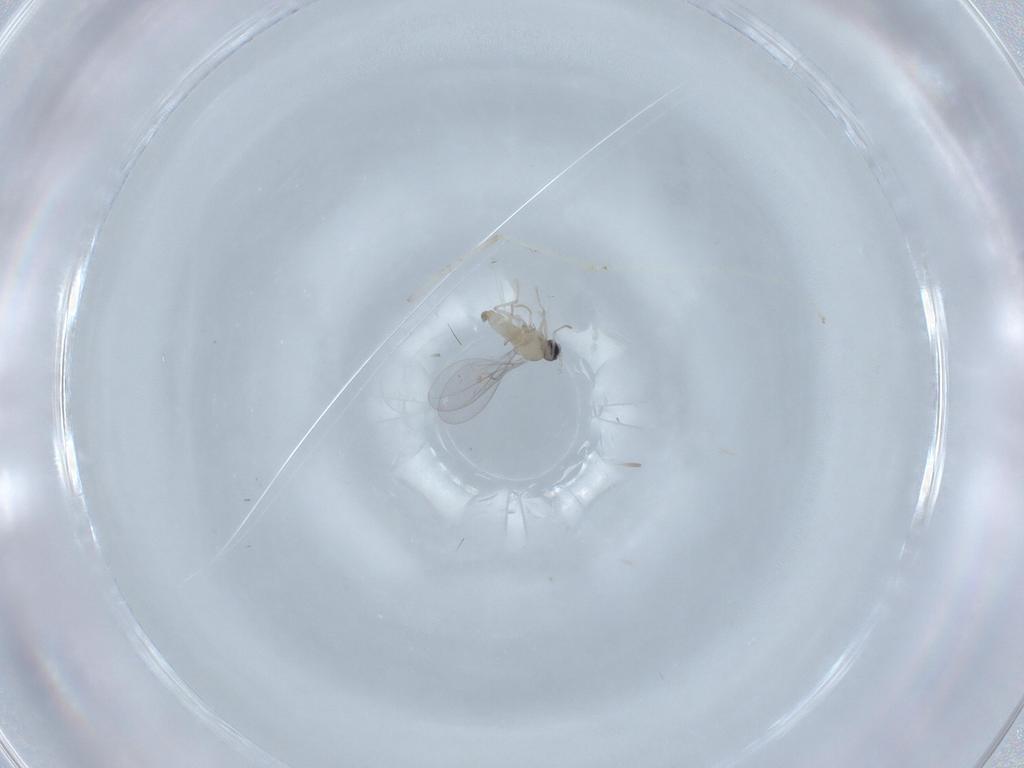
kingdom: Animalia
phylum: Arthropoda
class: Insecta
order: Diptera
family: Cecidomyiidae
